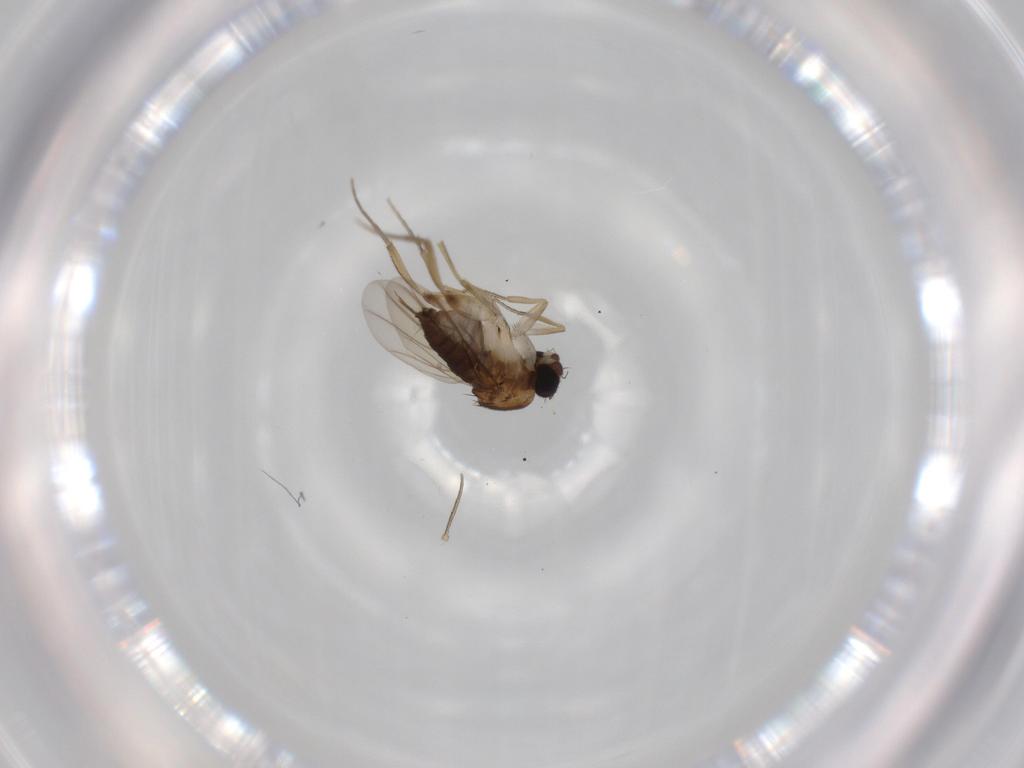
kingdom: Animalia
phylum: Arthropoda
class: Insecta
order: Diptera
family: Phoridae
